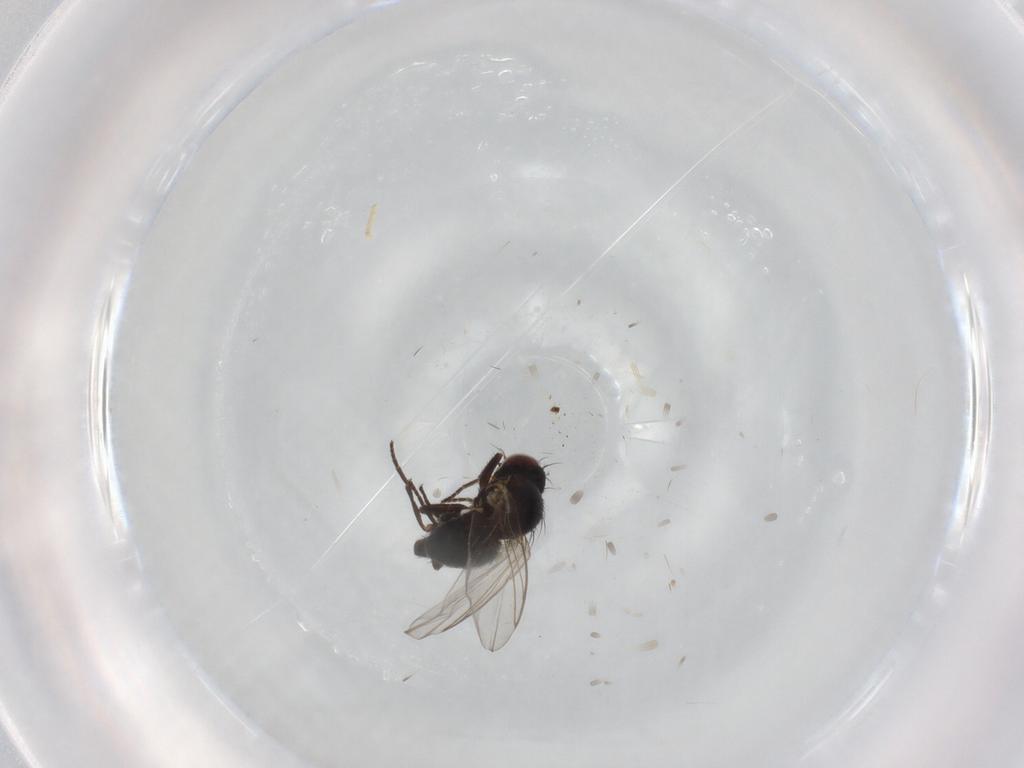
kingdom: Animalia
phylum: Arthropoda
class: Insecta
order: Diptera
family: Agromyzidae
